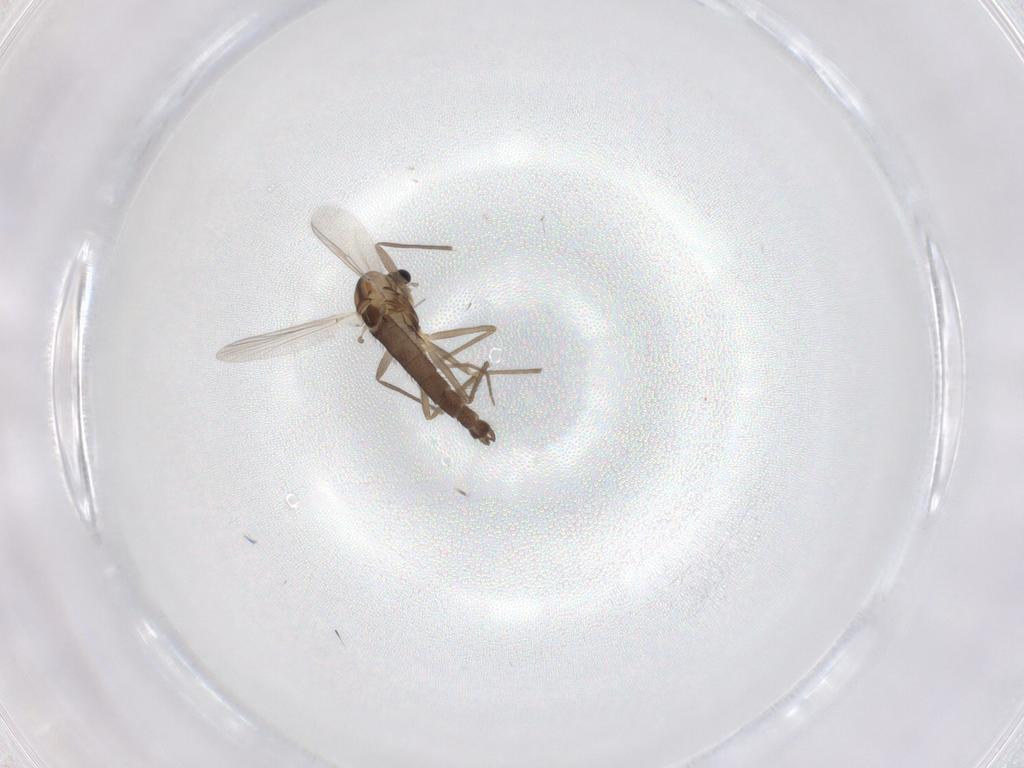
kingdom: Animalia
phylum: Arthropoda
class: Insecta
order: Diptera
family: Chironomidae
